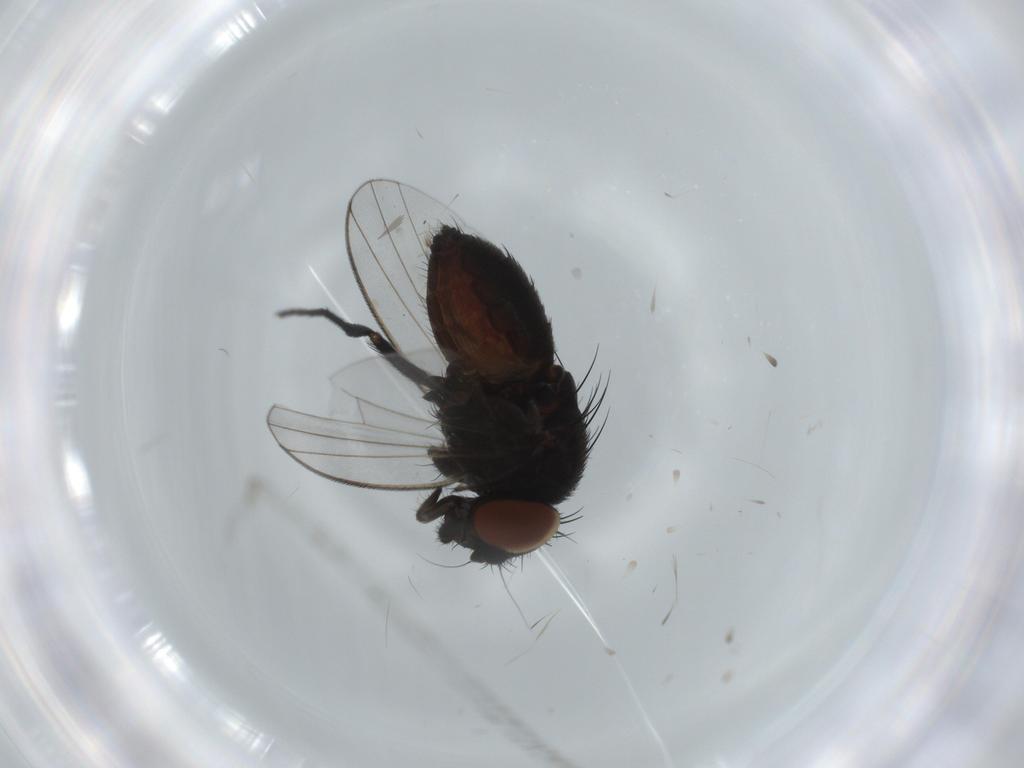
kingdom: Animalia
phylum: Arthropoda
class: Insecta
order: Diptera
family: Milichiidae
